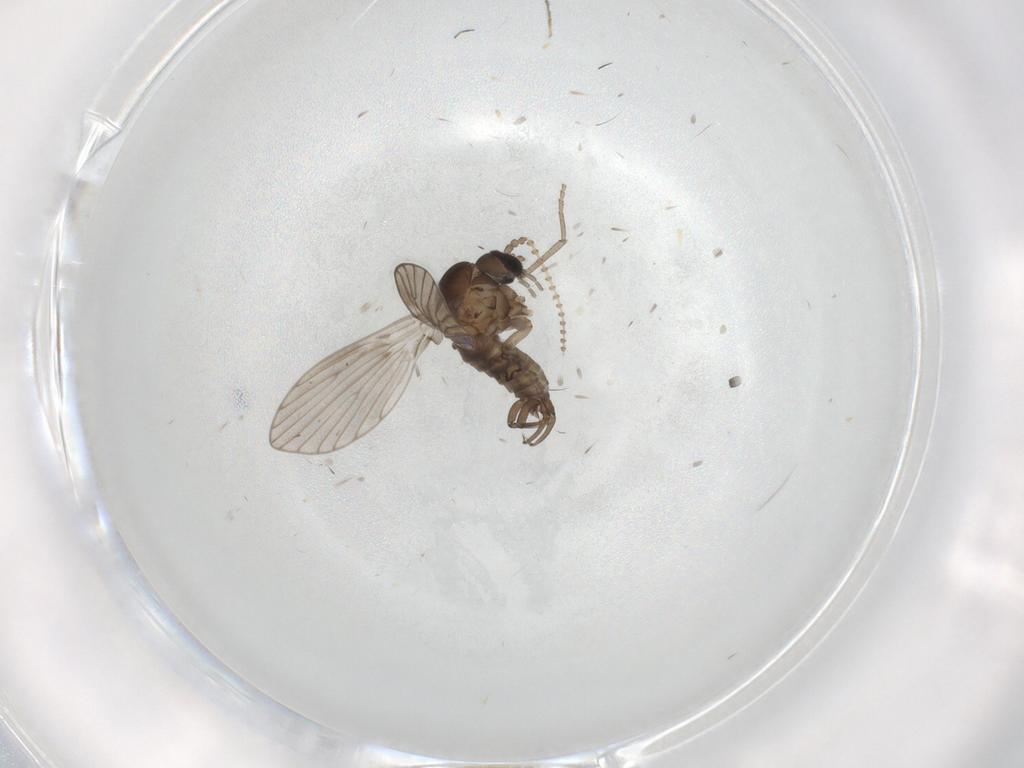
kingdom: Animalia
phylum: Arthropoda
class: Insecta
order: Diptera
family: Psychodidae
